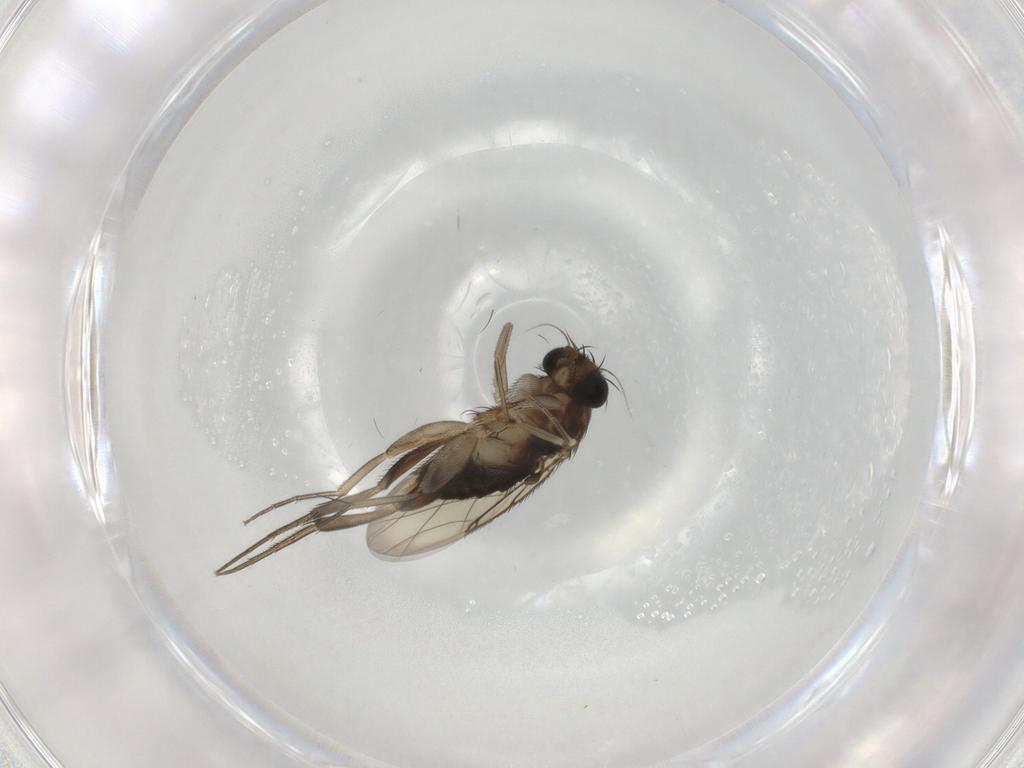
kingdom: Animalia
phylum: Arthropoda
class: Insecta
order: Diptera
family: Phoridae
